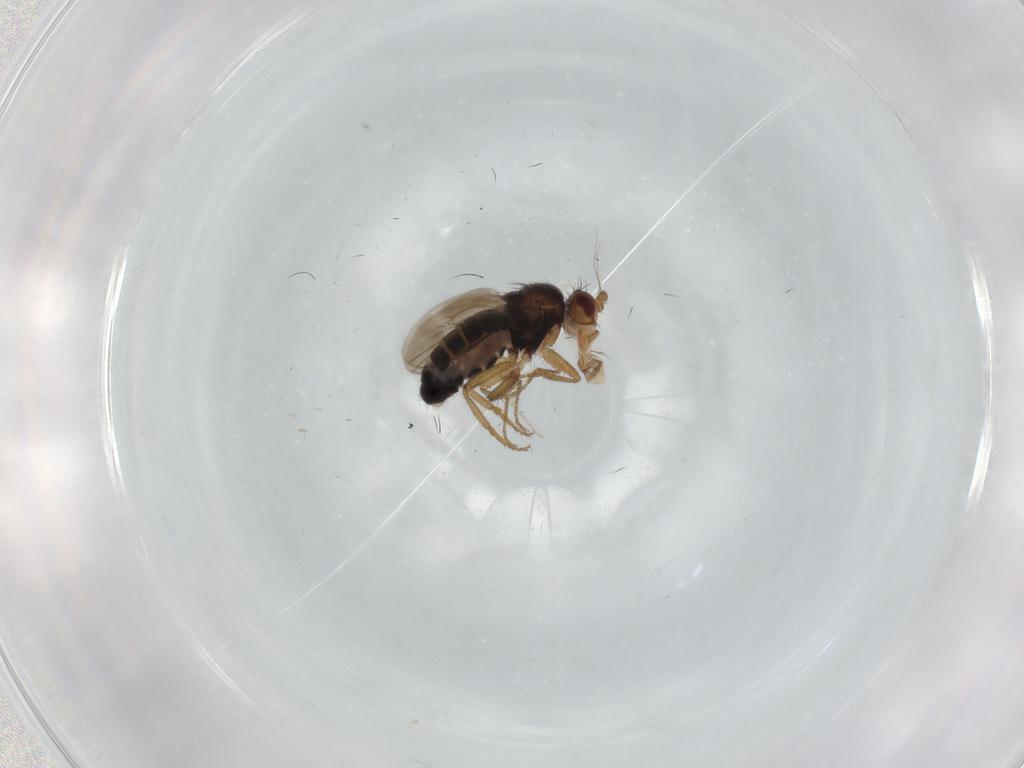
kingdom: Animalia
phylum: Arthropoda
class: Insecta
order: Diptera
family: Sphaeroceridae
